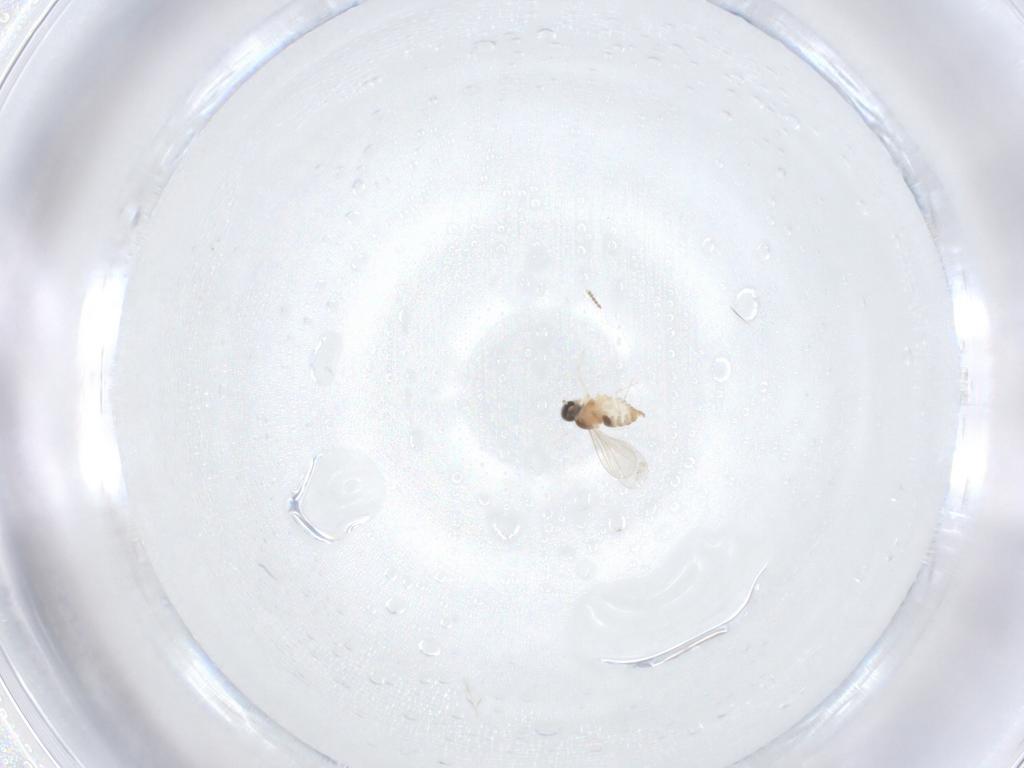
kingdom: Animalia
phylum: Arthropoda
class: Insecta
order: Diptera
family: Cecidomyiidae
